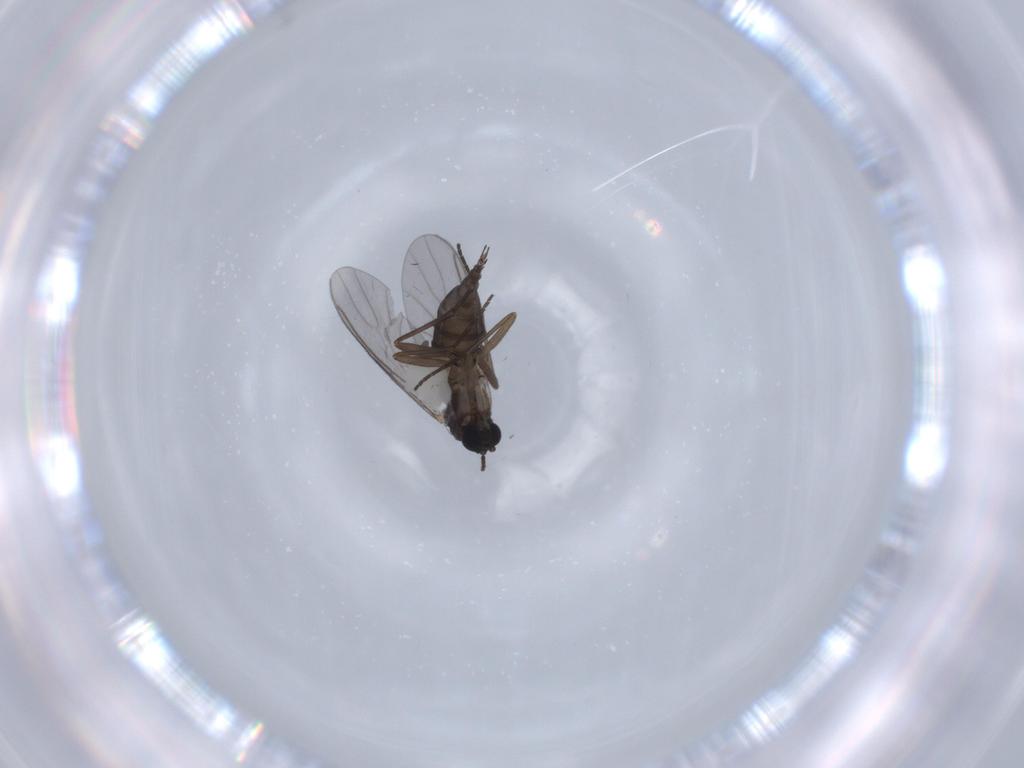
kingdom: Animalia
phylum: Arthropoda
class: Insecta
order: Diptera
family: Sciaridae
